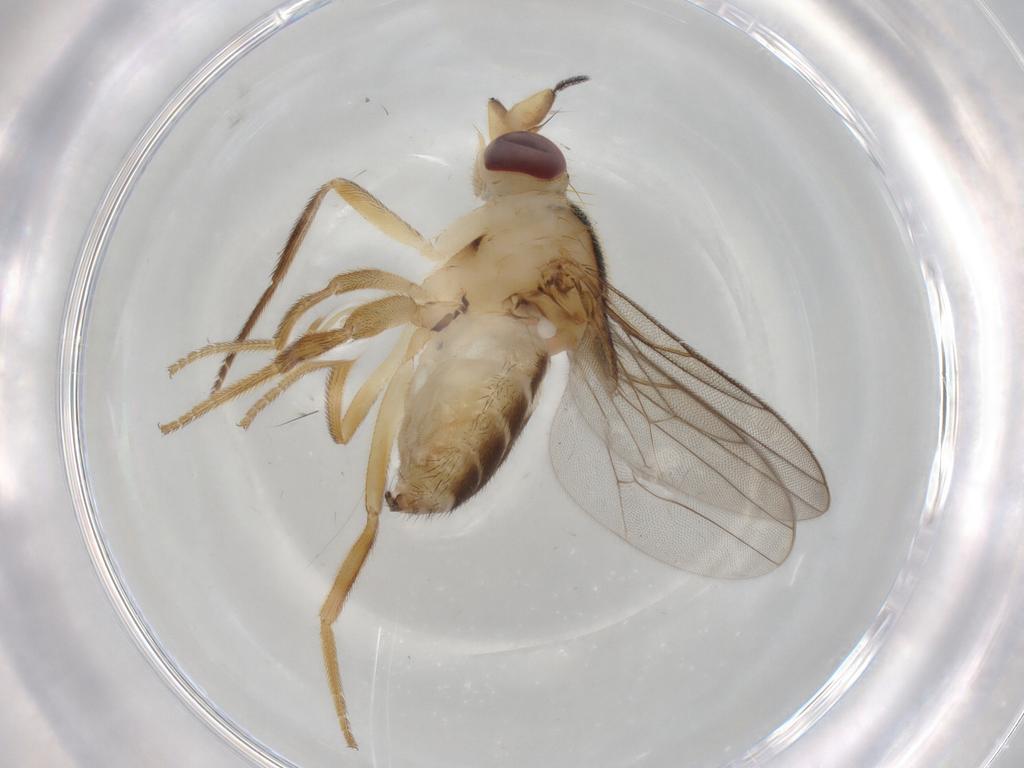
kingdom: Animalia
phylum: Arthropoda
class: Insecta
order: Diptera
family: Chloropidae
